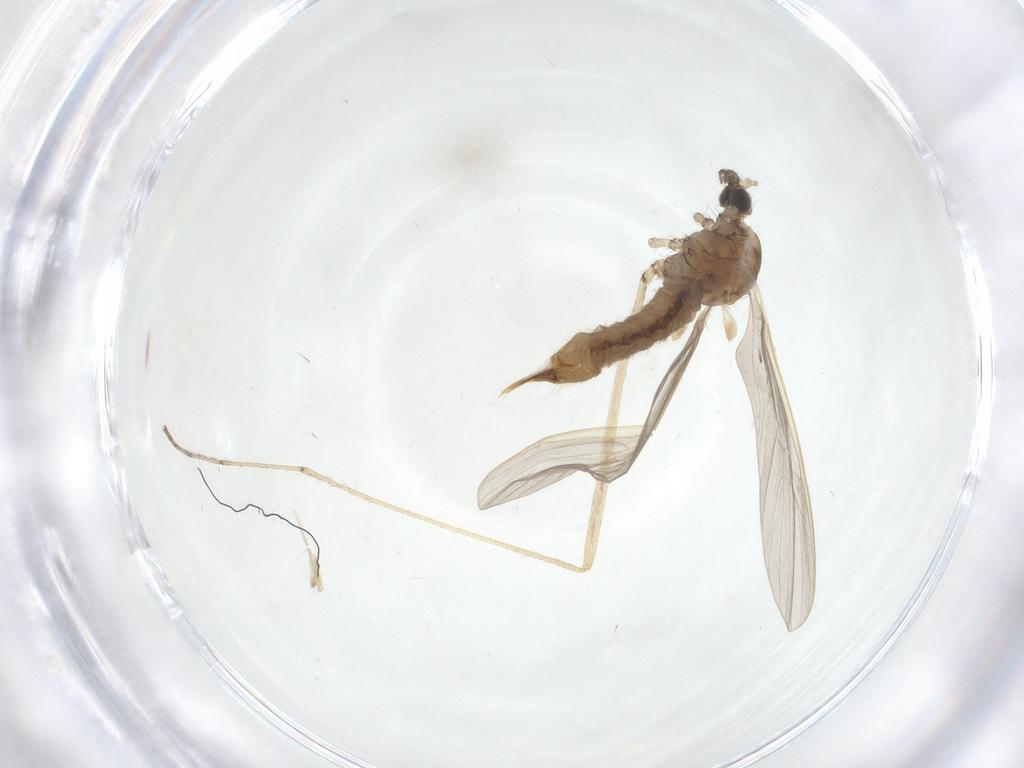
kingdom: Animalia
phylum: Arthropoda
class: Insecta
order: Diptera
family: Limoniidae
